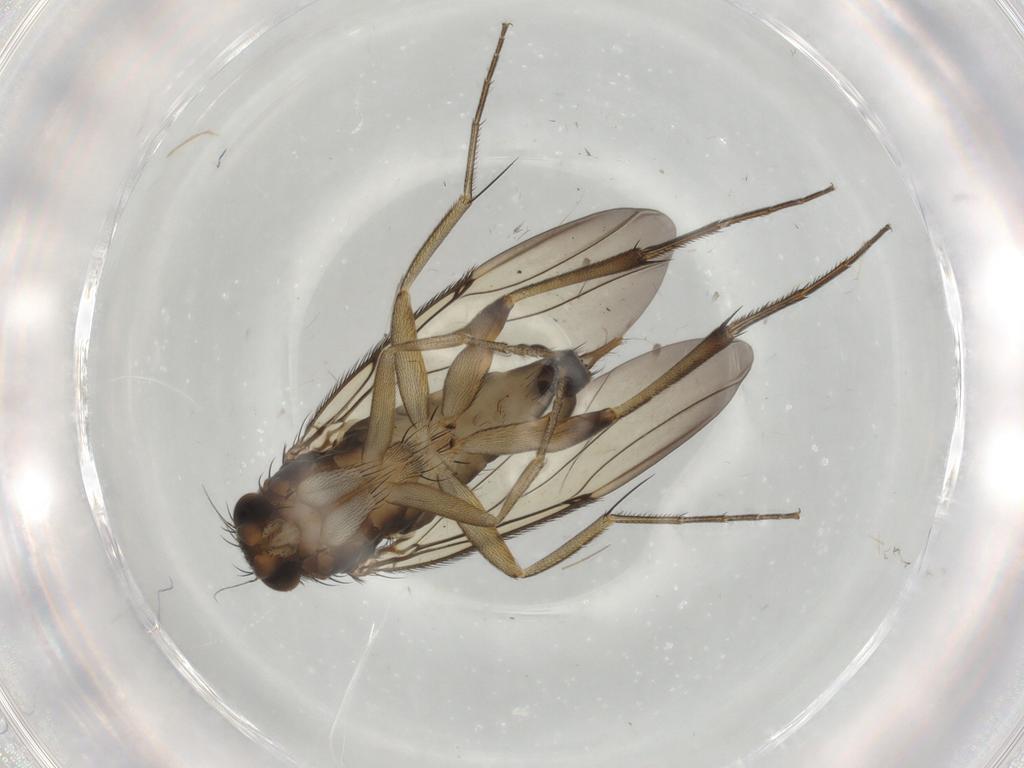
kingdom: Animalia
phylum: Arthropoda
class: Insecta
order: Diptera
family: Phoridae
